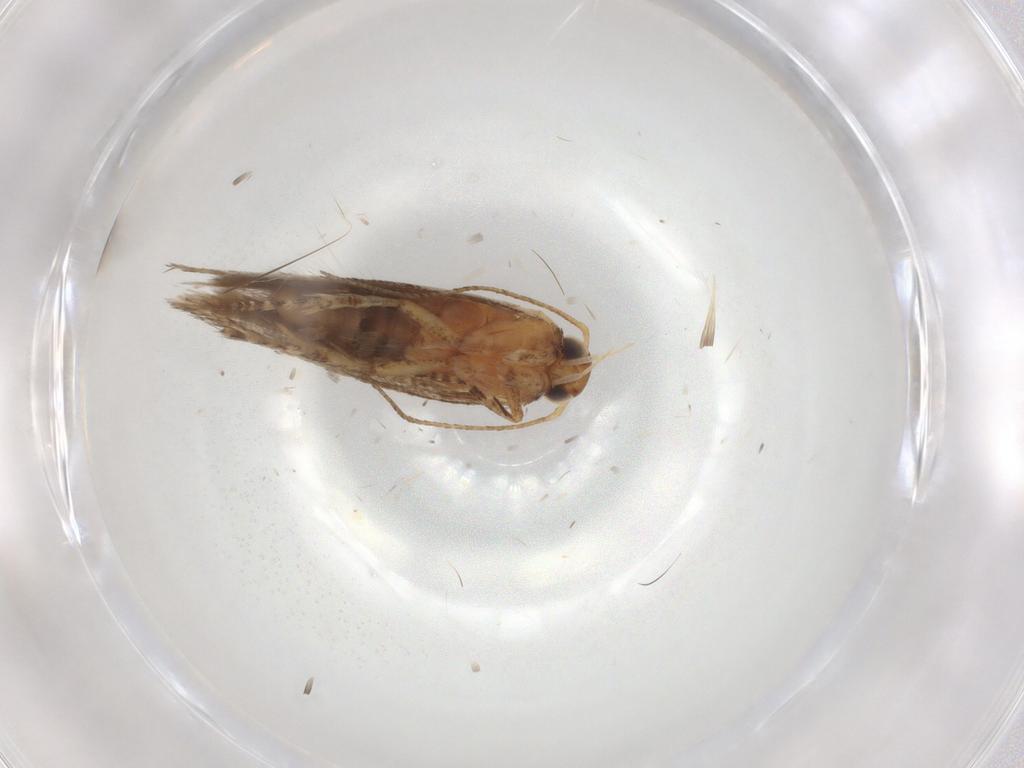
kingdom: Animalia
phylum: Arthropoda
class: Insecta
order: Lepidoptera
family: Gelechiidae
